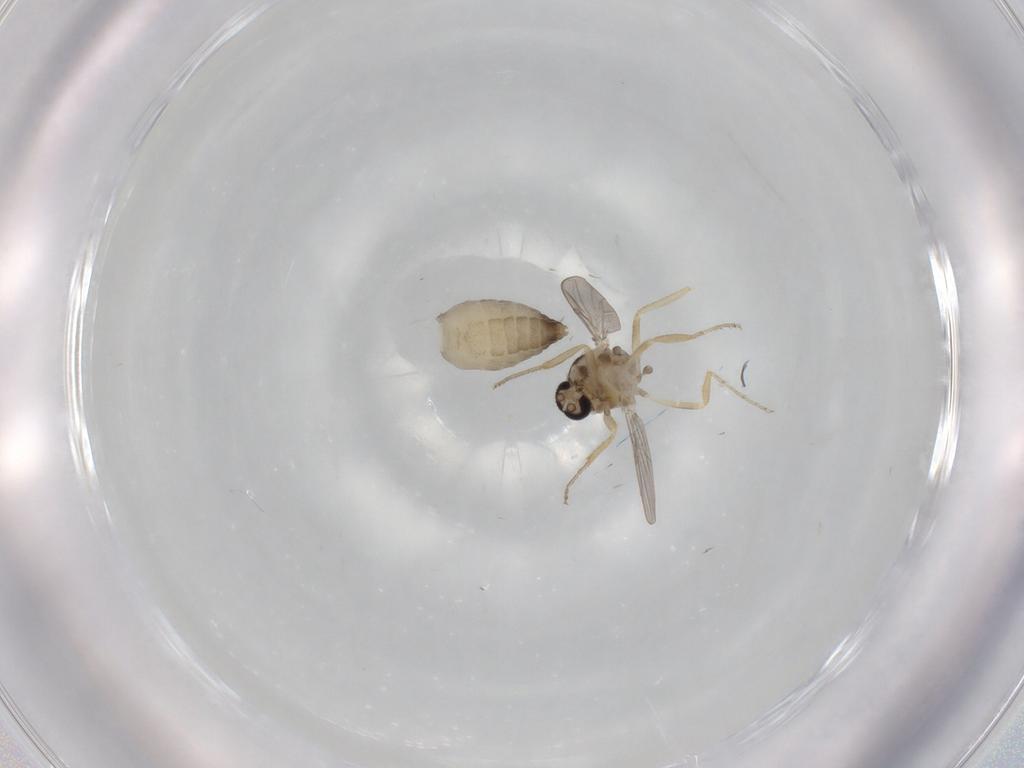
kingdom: Animalia
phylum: Arthropoda
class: Insecta
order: Diptera
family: Ceratopogonidae
